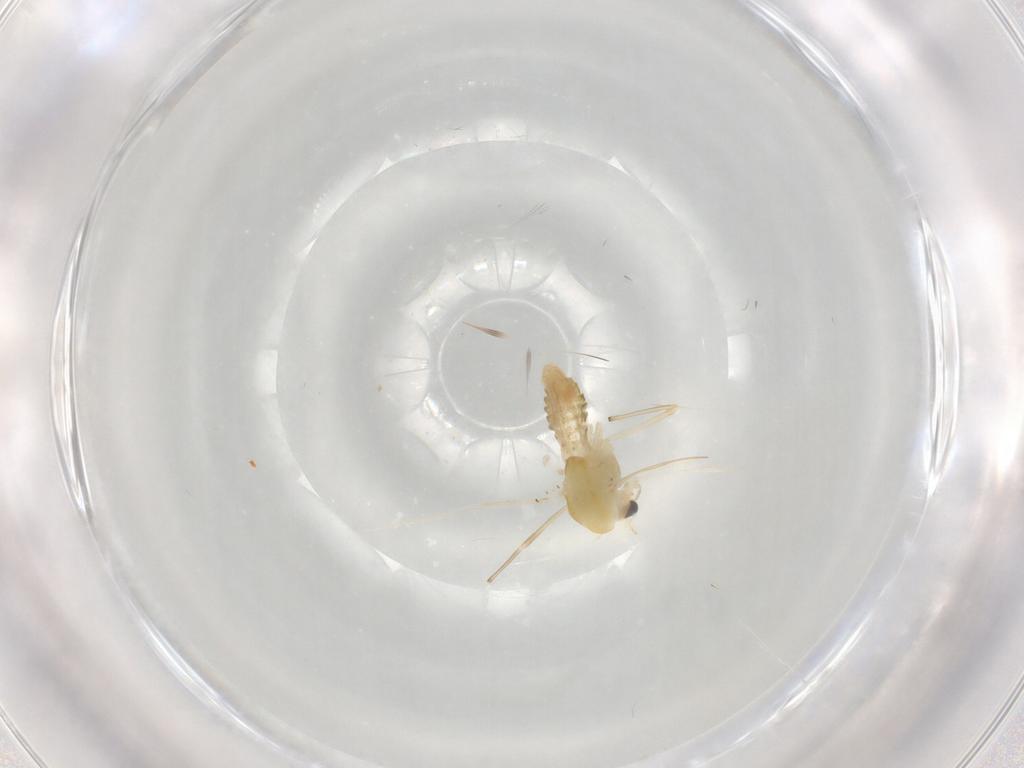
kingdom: Animalia
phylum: Arthropoda
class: Insecta
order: Diptera
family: Chironomidae
